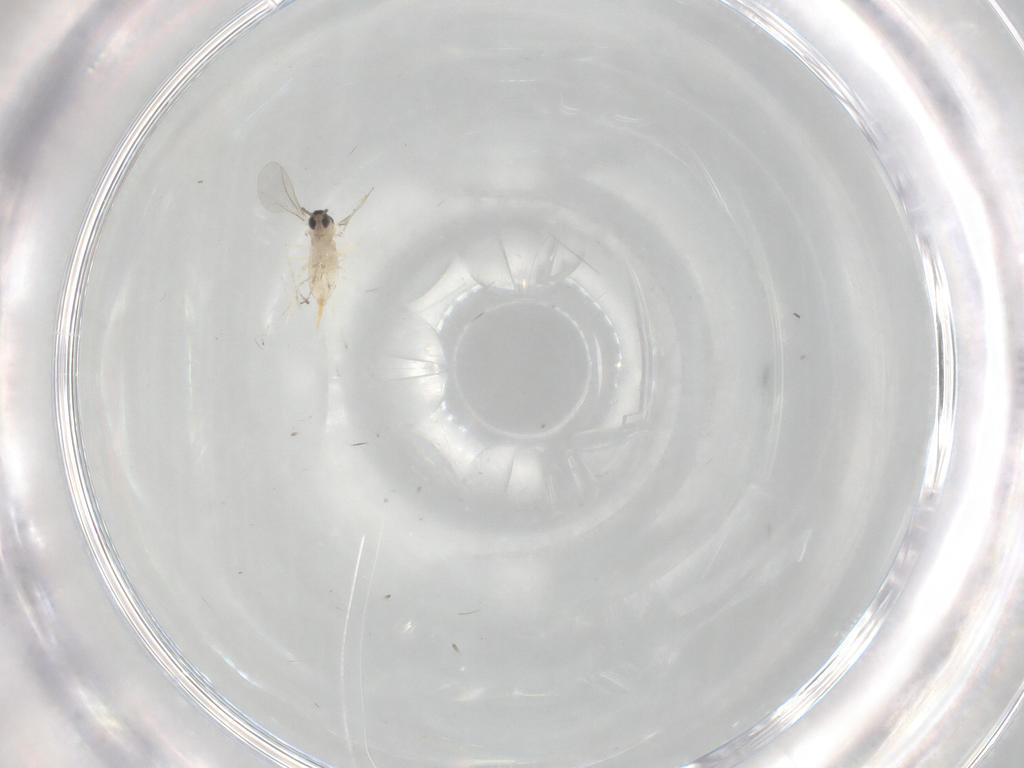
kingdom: Animalia
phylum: Arthropoda
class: Insecta
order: Diptera
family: Cecidomyiidae
